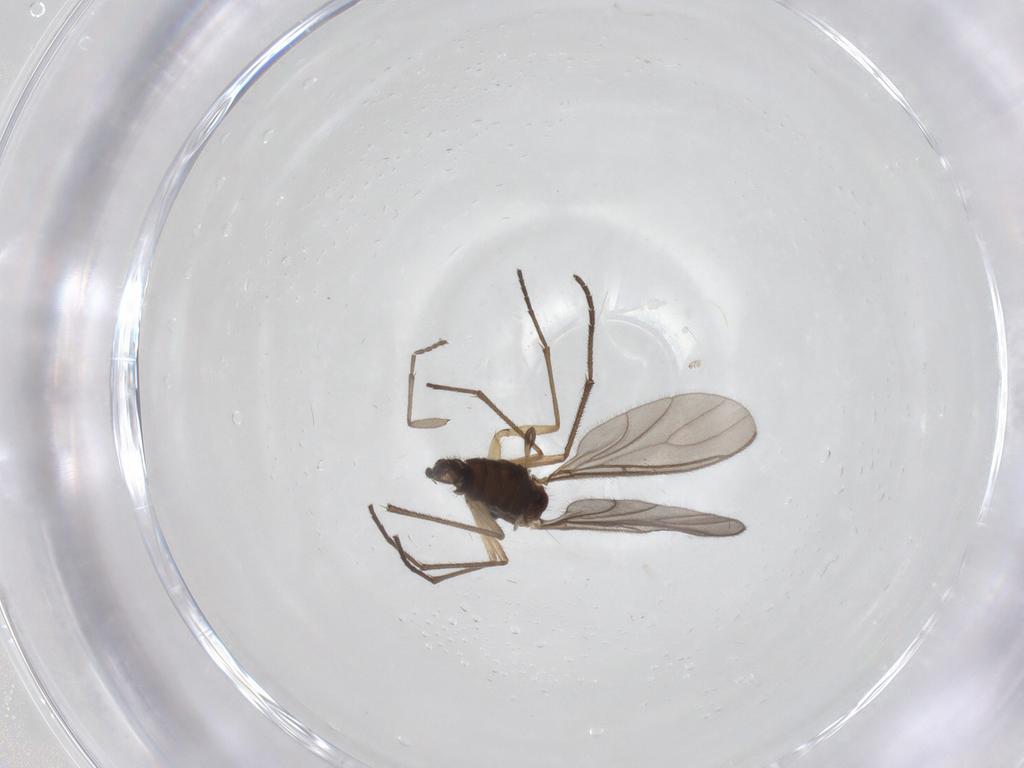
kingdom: Animalia
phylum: Arthropoda
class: Insecta
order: Diptera
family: Sciaridae
